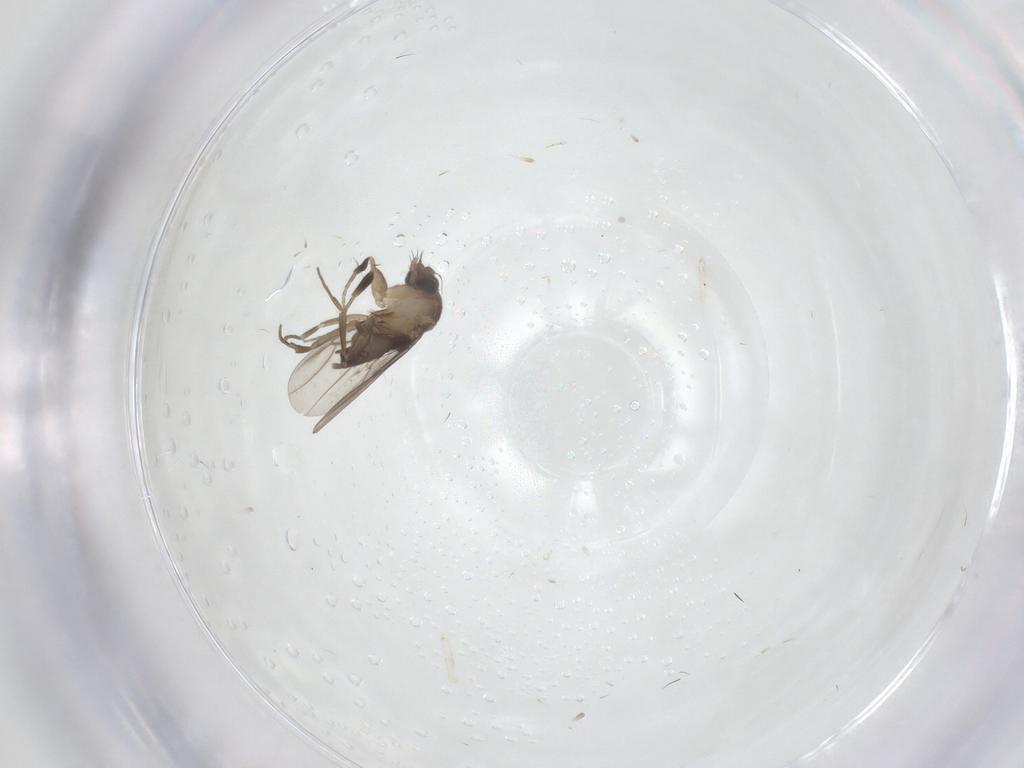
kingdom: Animalia
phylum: Arthropoda
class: Insecta
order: Diptera
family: Phoridae
